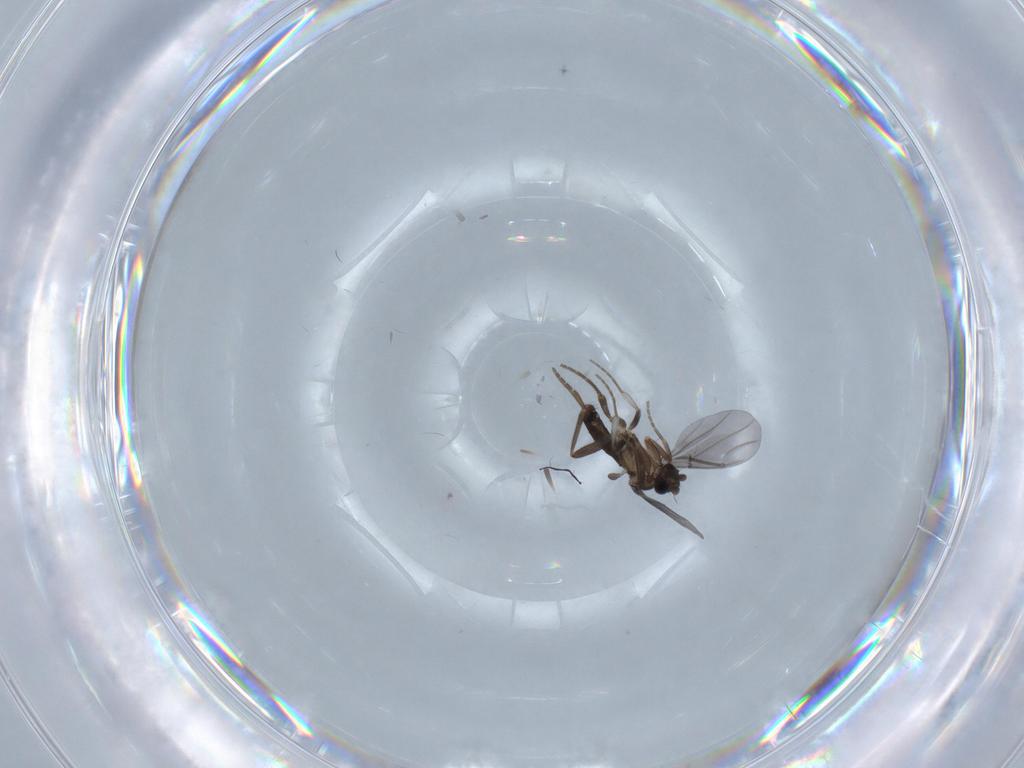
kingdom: Animalia
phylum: Arthropoda
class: Insecta
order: Diptera
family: Phoridae
